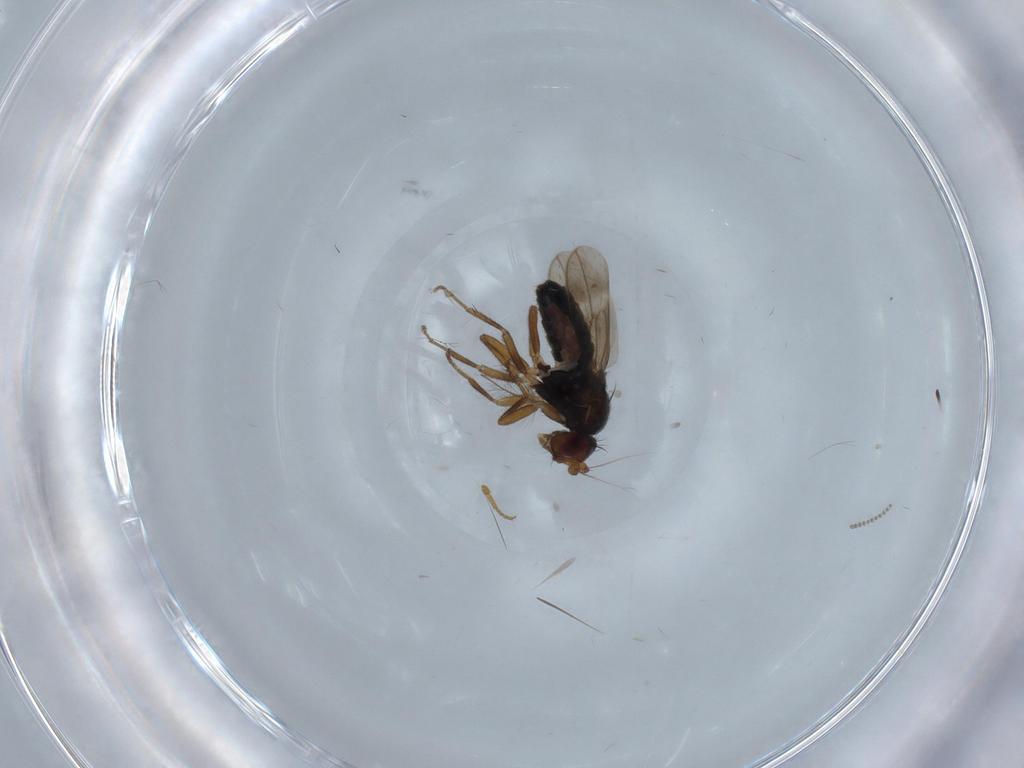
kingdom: Animalia
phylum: Arthropoda
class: Insecta
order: Diptera
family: Sphaeroceridae
